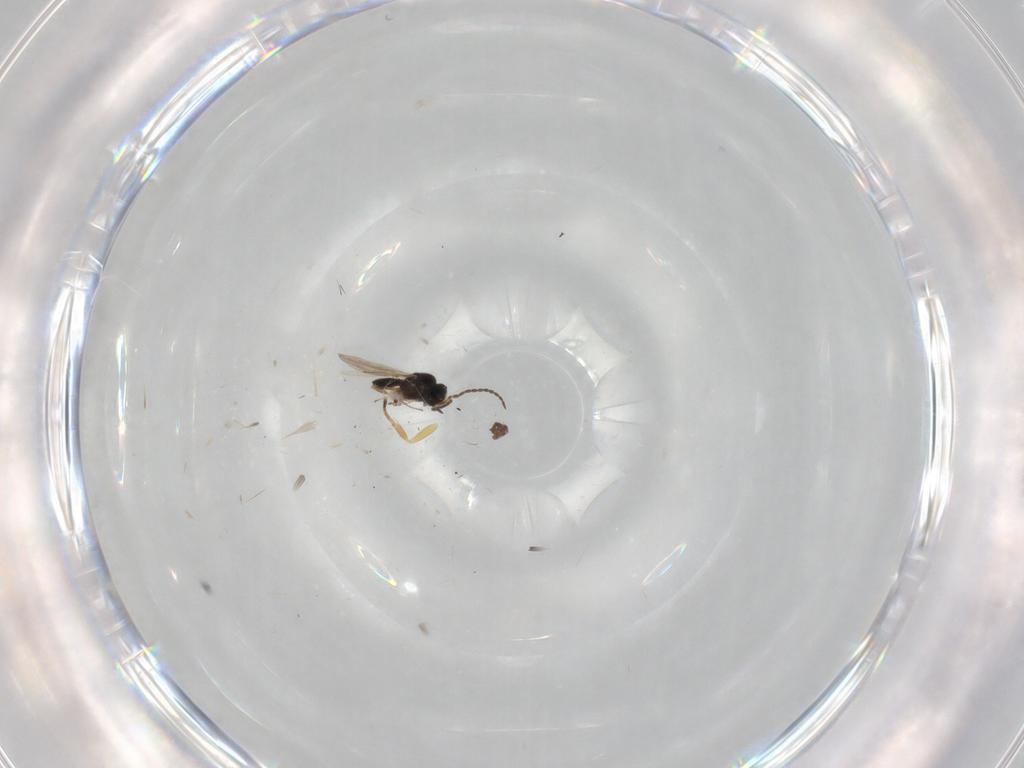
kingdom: Animalia
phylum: Arthropoda
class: Insecta
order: Hymenoptera
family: Scelionidae
